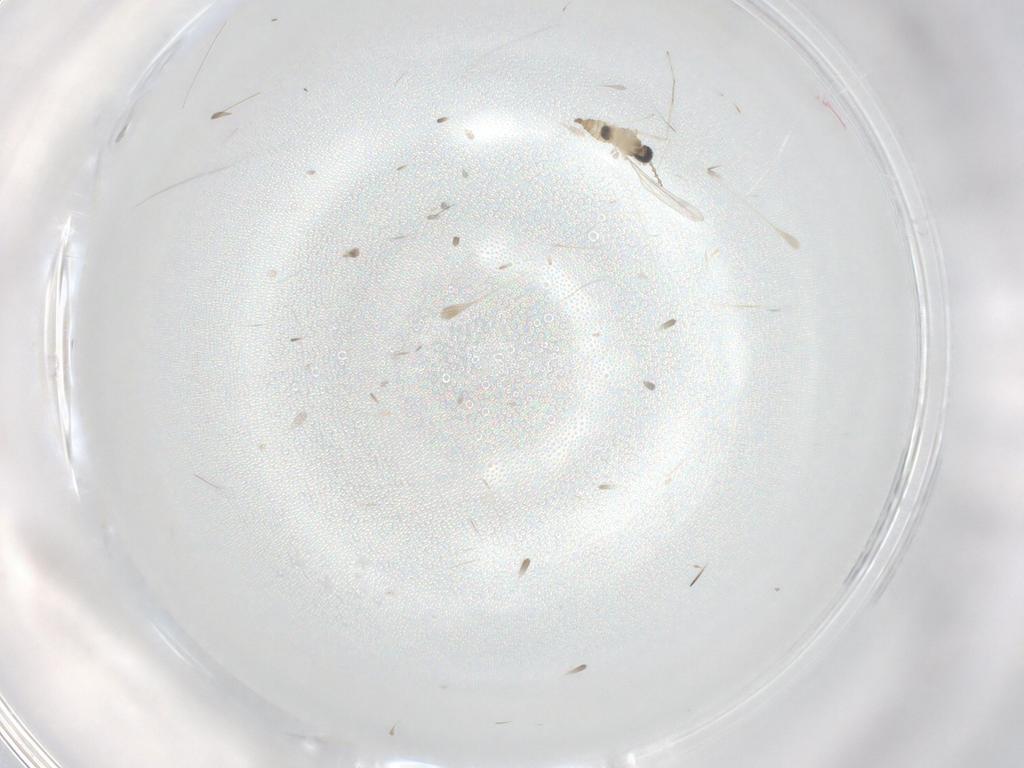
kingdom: Animalia
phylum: Arthropoda
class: Insecta
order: Diptera
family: Cecidomyiidae
